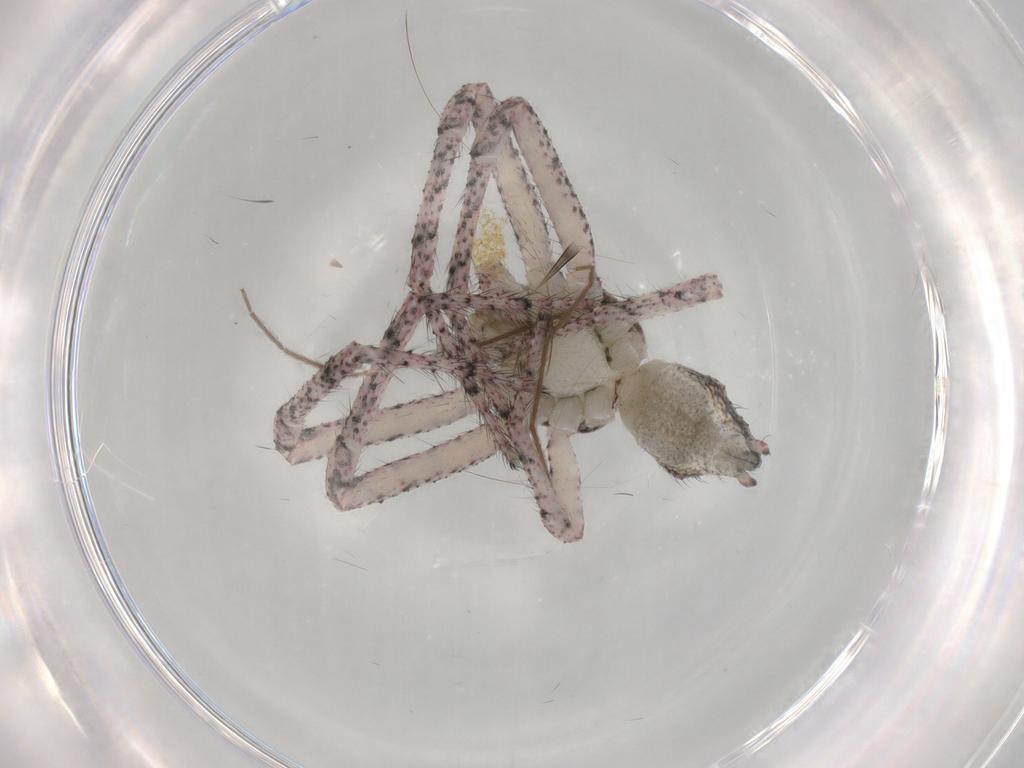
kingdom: Animalia
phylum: Arthropoda
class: Arachnida
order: Araneae
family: Thomisidae
